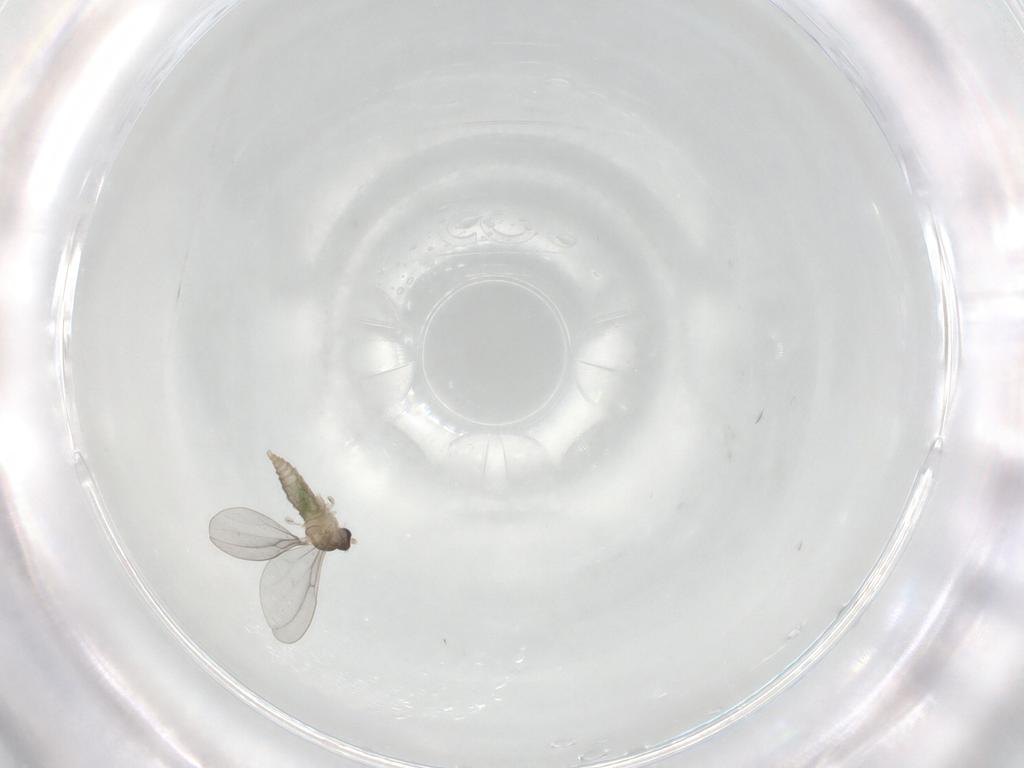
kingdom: Animalia
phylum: Arthropoda
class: Insecta
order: Diptera
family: Cecidomyiidae
